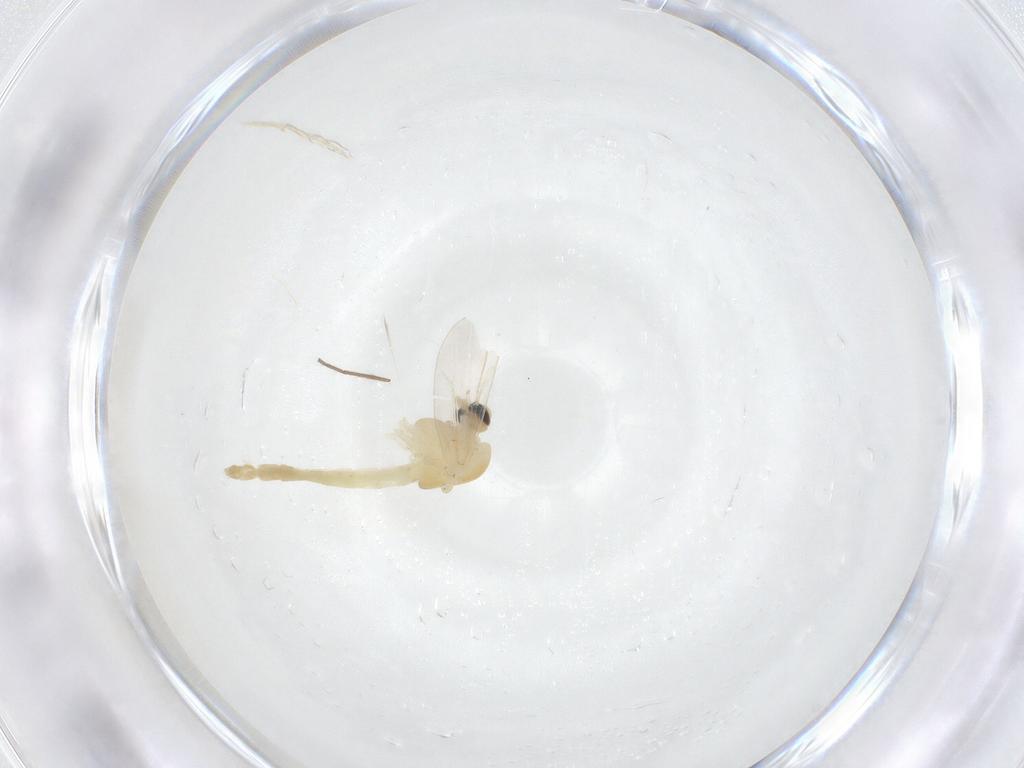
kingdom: Animalia
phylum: Arthropoda
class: Insecta
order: Diptera
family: Chironomidae
